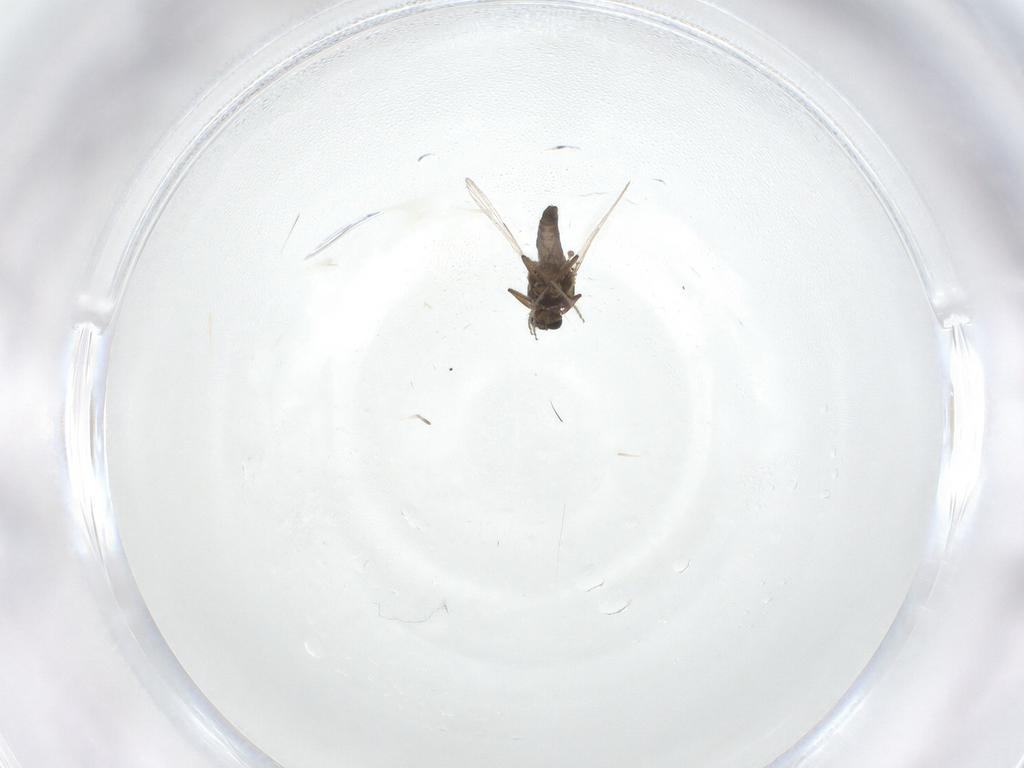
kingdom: Animalia
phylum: Arthropoda
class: Insecta
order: Diptera
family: Ceratopogonidae
